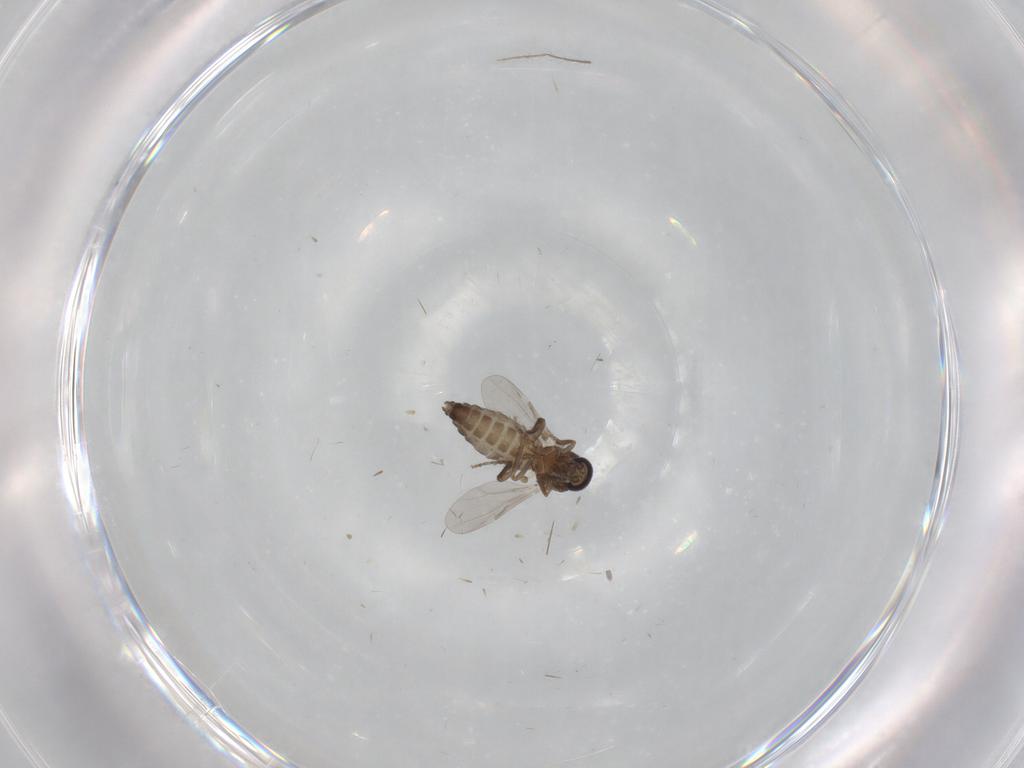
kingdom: Animalia
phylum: Arthropoda
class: Insecta
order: Diptera
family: Ceratopogonidae
